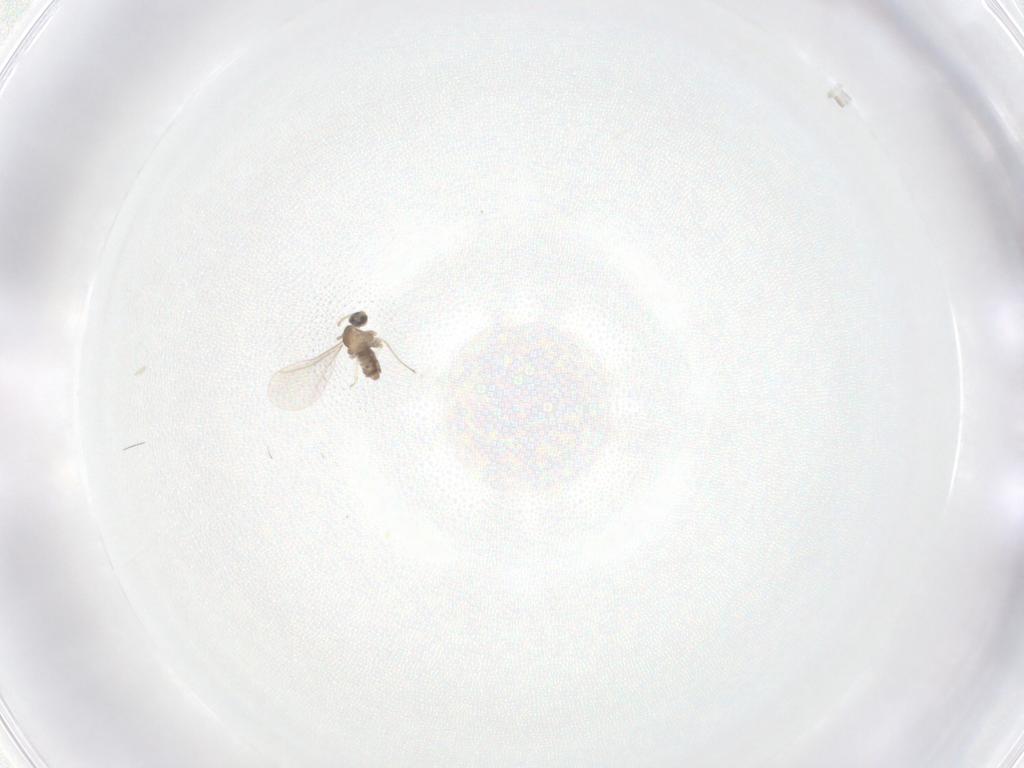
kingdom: Animalia
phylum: Arthropoda
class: Insecta
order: Diptera
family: Cecidomyiidae
